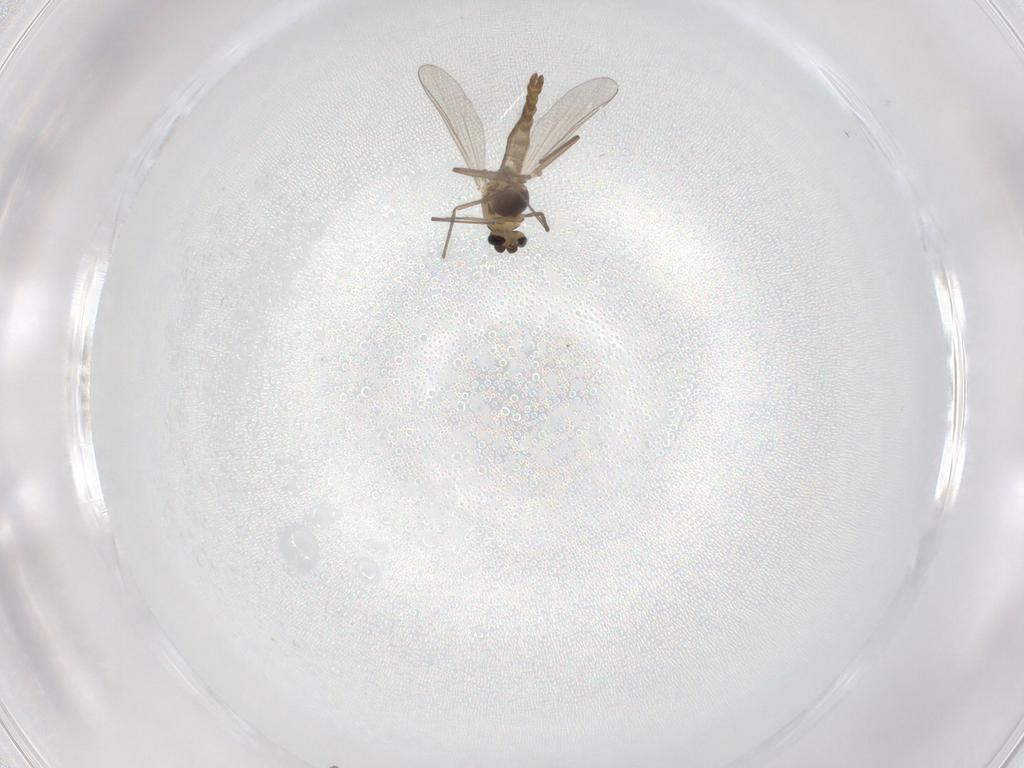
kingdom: Animalia
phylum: Arthropoda
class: Insecta
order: Diptera
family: Chironomidae
